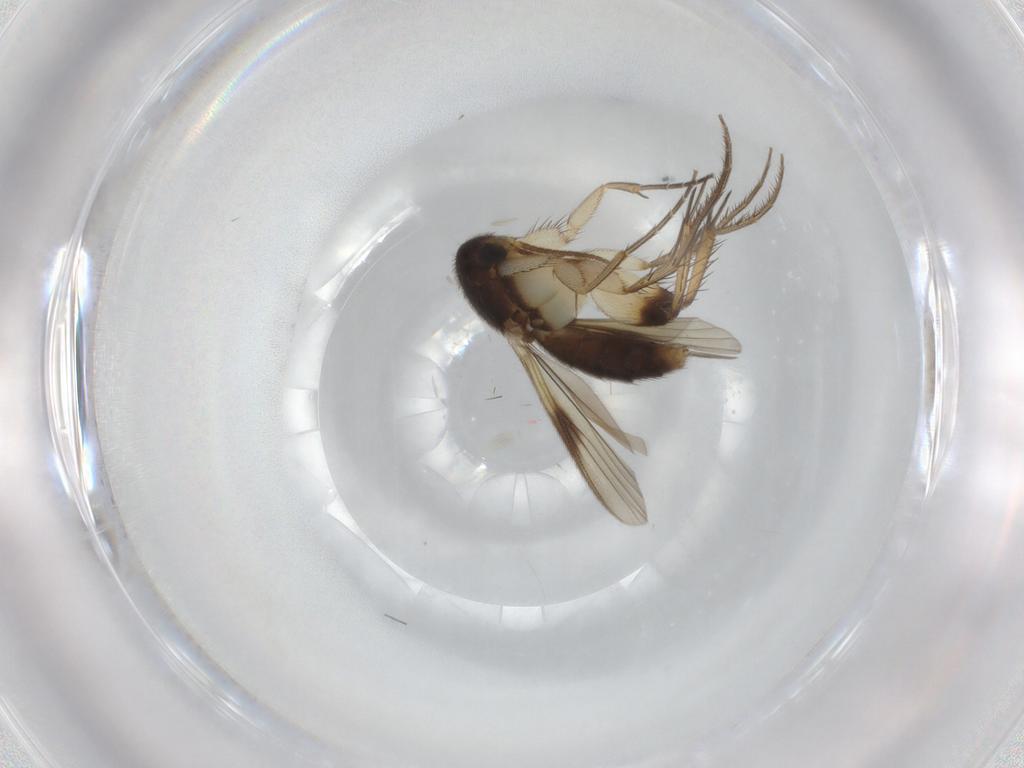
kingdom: Animalia
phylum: Arthropoda
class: Insecta
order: Diptera
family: Mycetophilidae
